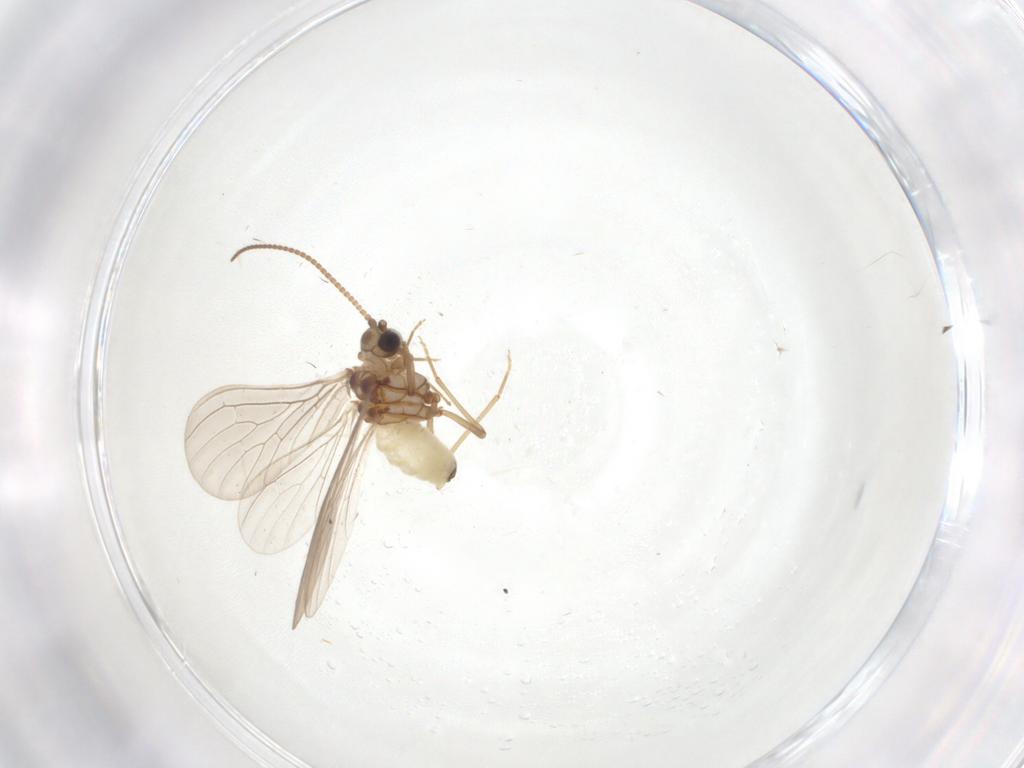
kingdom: Animalia
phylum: Arthropoda
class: Insecta
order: Neuroptera
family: Coniopterygidae
